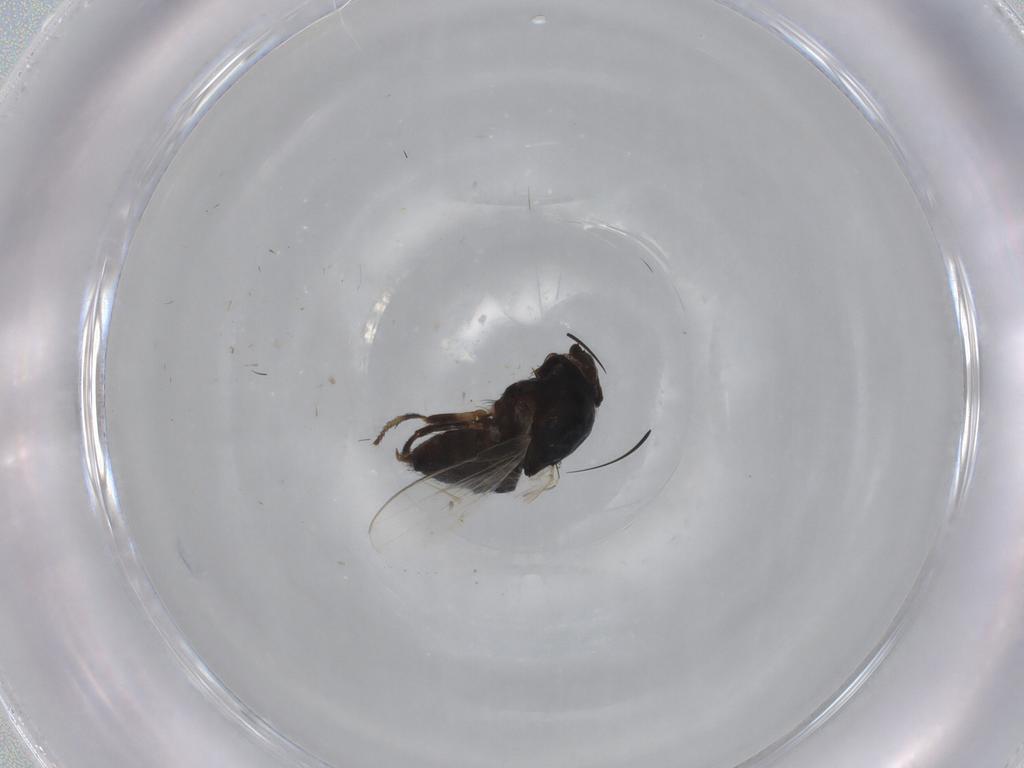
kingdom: Animalia
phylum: Arthropoda
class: Insecta
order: Diptera
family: Milichiidae
